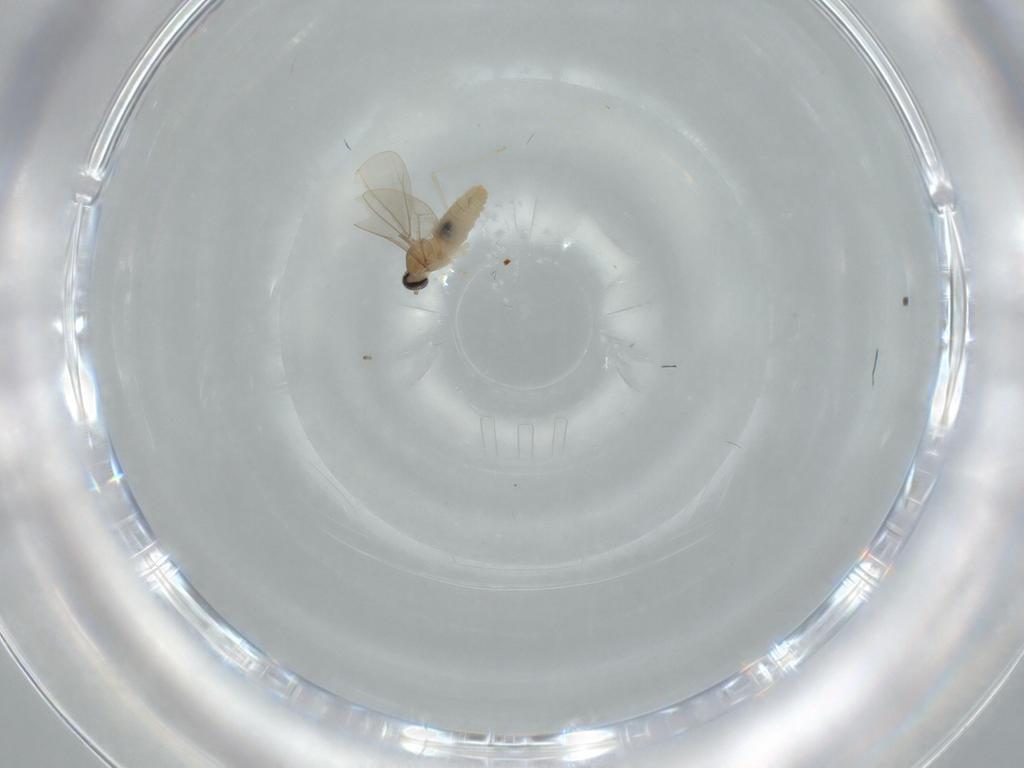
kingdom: Animalia
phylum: Arthropoda
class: Insecta
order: Diptera
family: Cecidomyiidae
